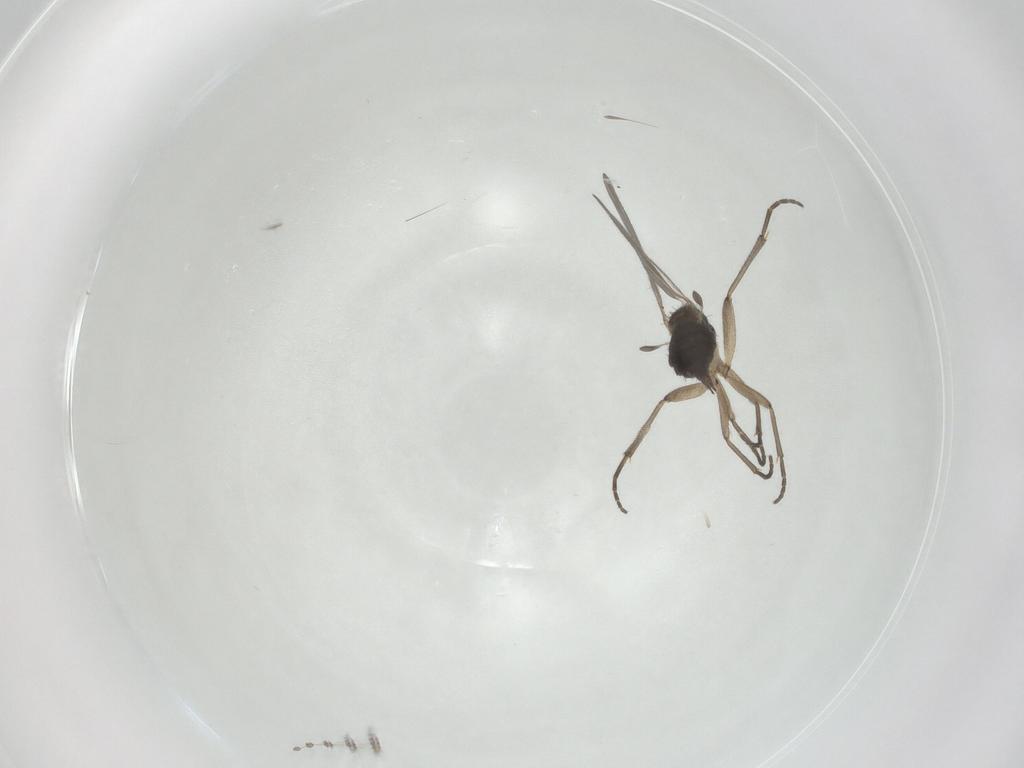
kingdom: Animalia
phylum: Arthropoda
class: Insecta
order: Diptera
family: Sciaridae
